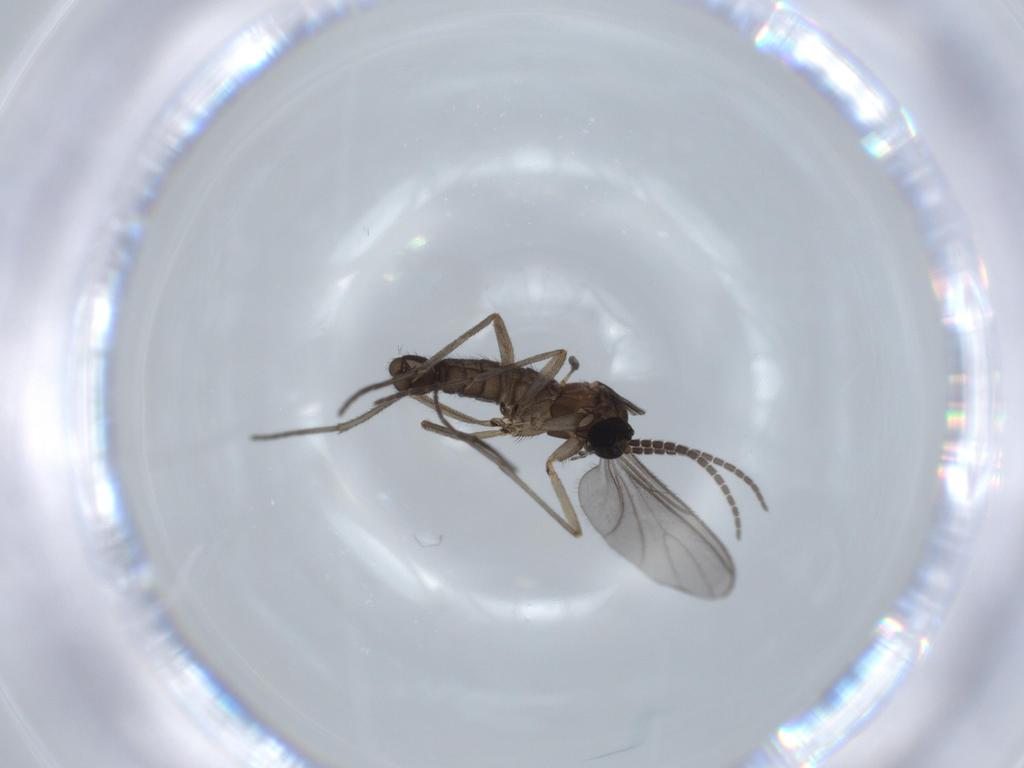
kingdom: Animalia
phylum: Arthropoda
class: Insecta
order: Diptera
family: Sciaridae
